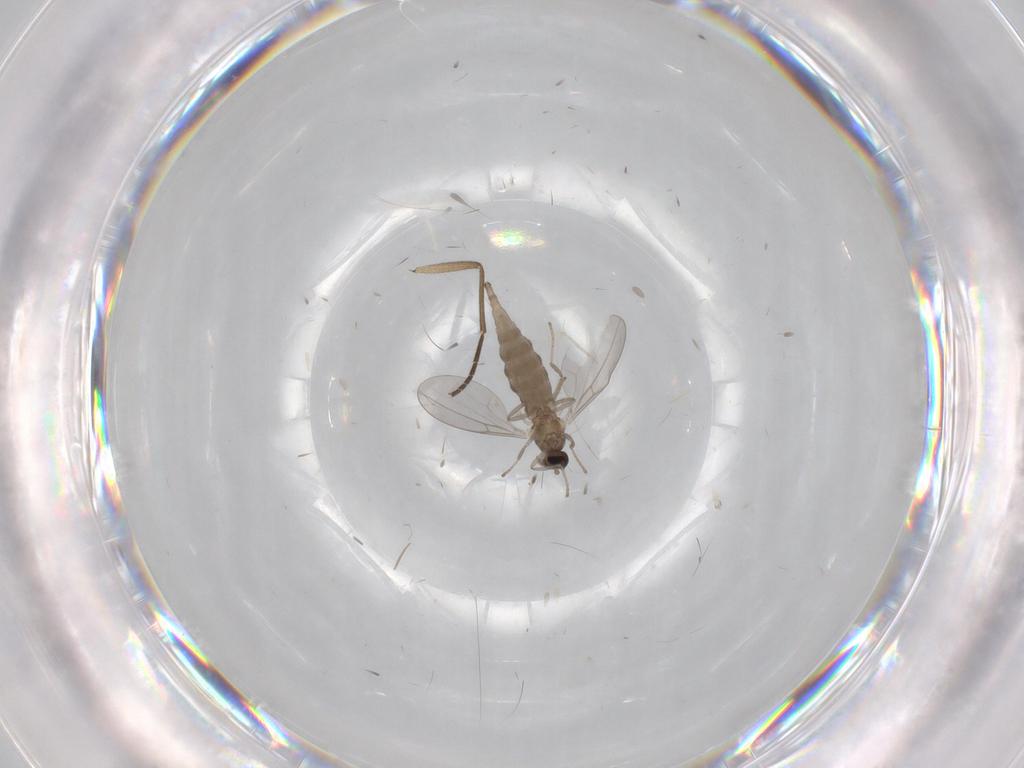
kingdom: Animalia
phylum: Arthropoda
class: Insecta
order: Diptera
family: Cecidomyiidae
